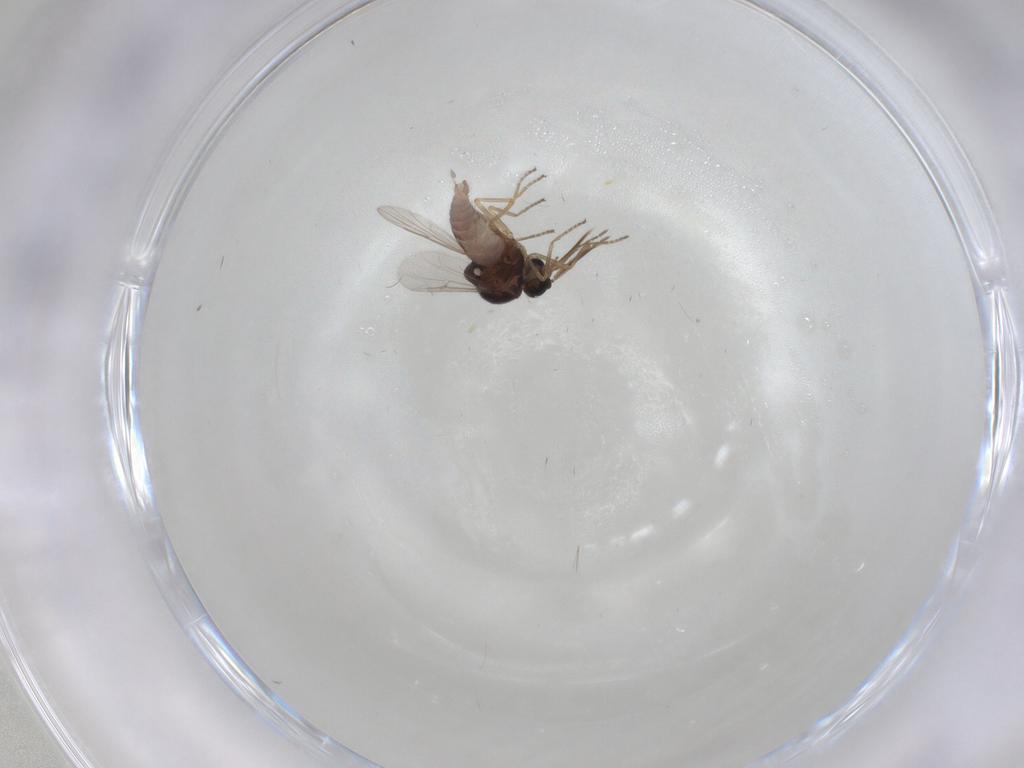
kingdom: Animalia
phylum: Arthropoda
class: Insecta
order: Diptera
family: Ceratopogonidae
